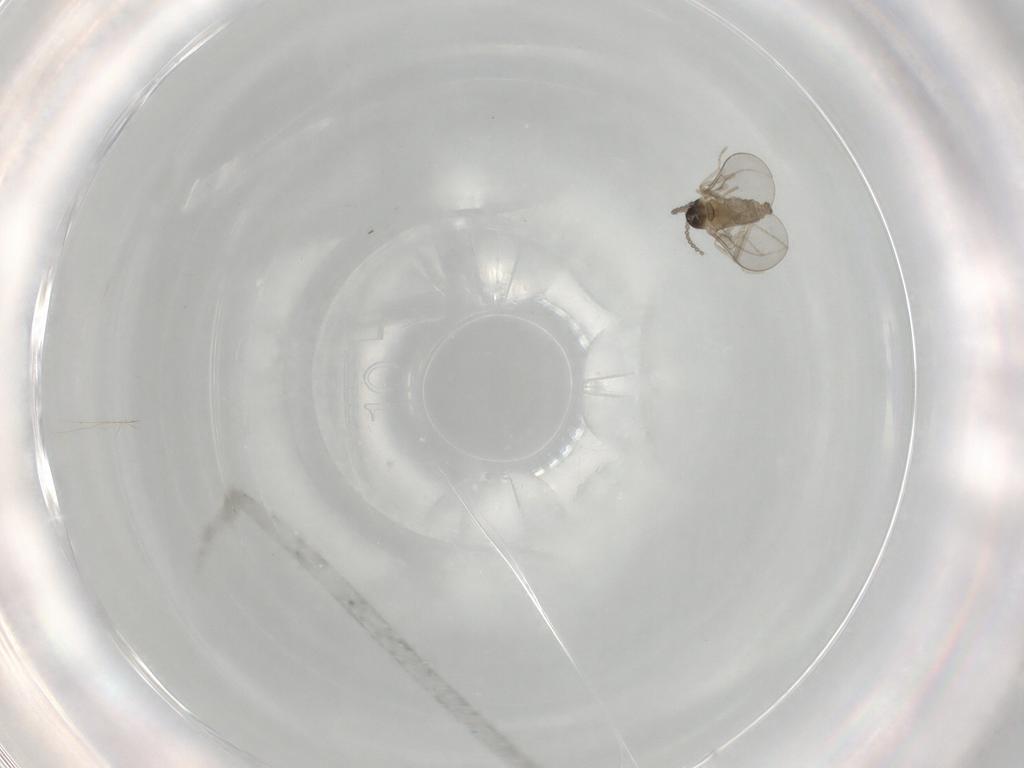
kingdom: Animalia
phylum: Arthropoda
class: Insecta
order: Diptera
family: Cecidomyiidae
